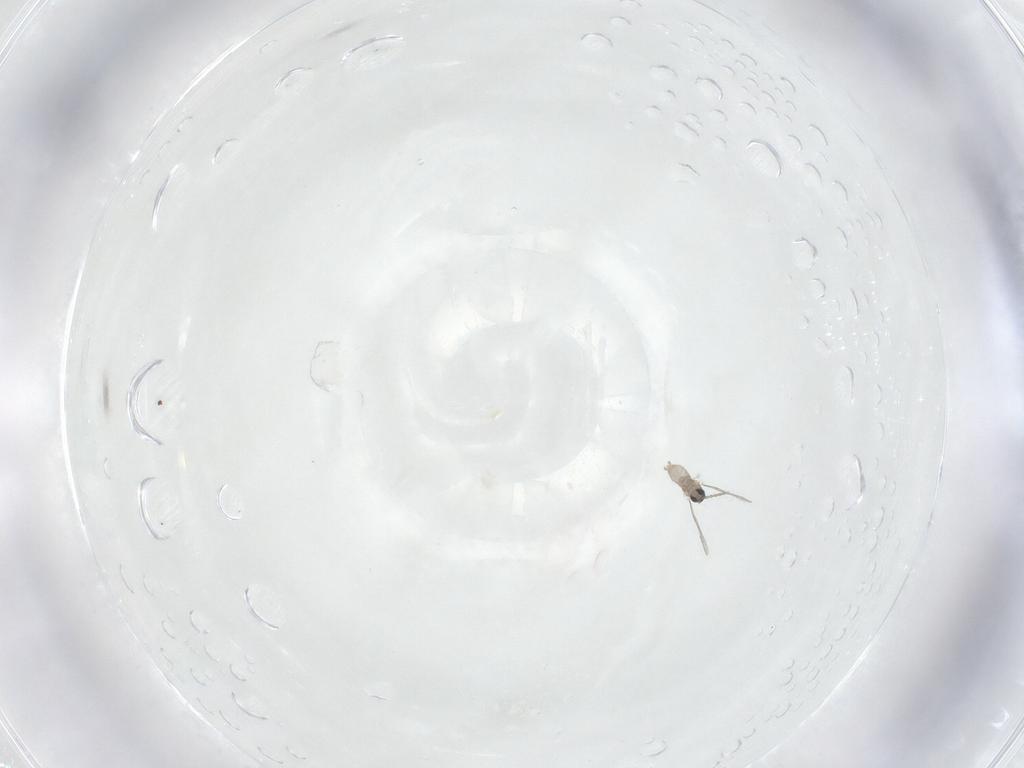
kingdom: Animalia
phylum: Arthropoda
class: Insecta
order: Diptera
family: Chironomidae
